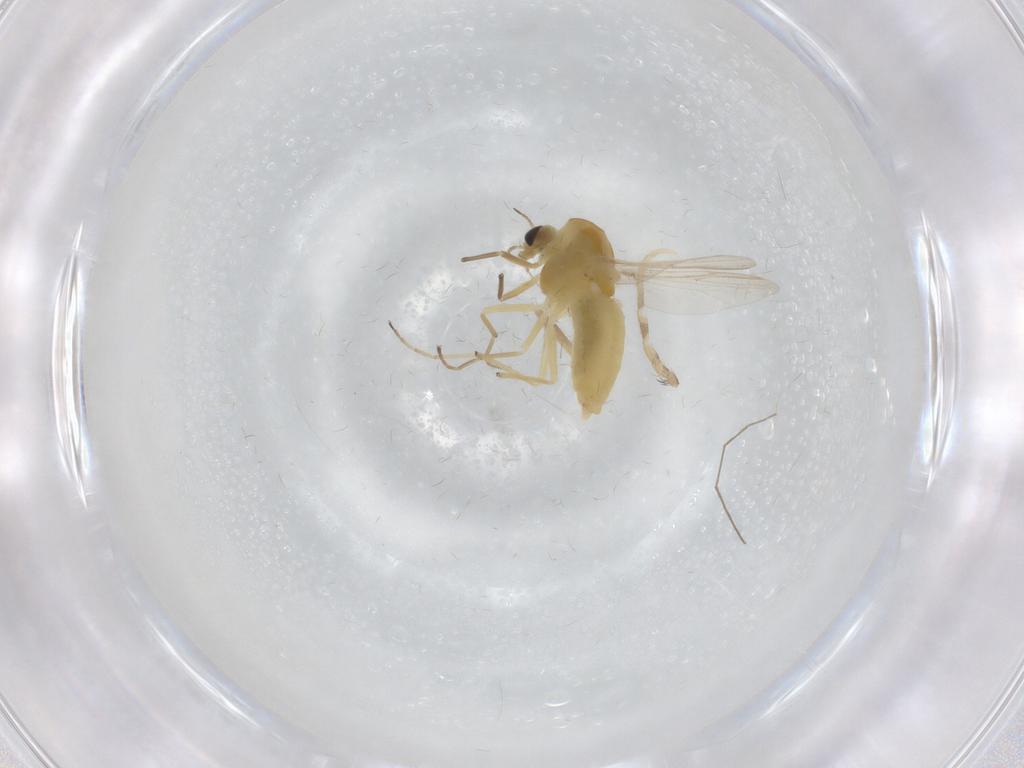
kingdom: Animalia
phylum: Arthropoda
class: Insecta
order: Diptera
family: Chironomidae
